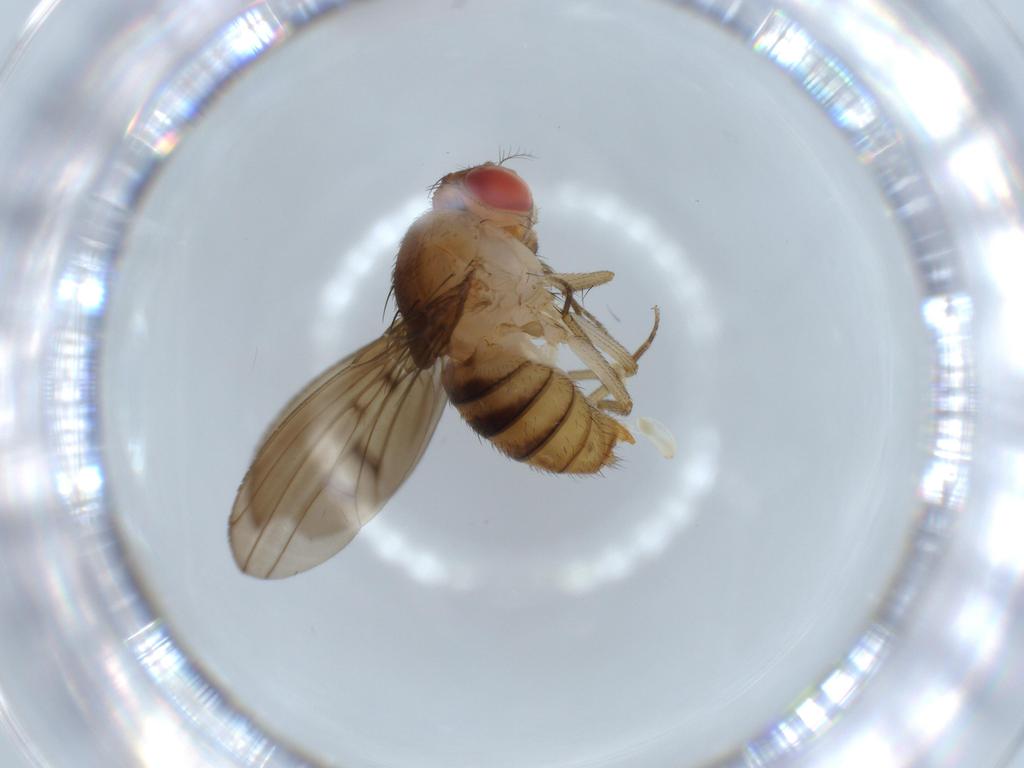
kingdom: Animalia
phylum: Arthropoda
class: Insecta
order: Diptera
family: Drosophilidae
